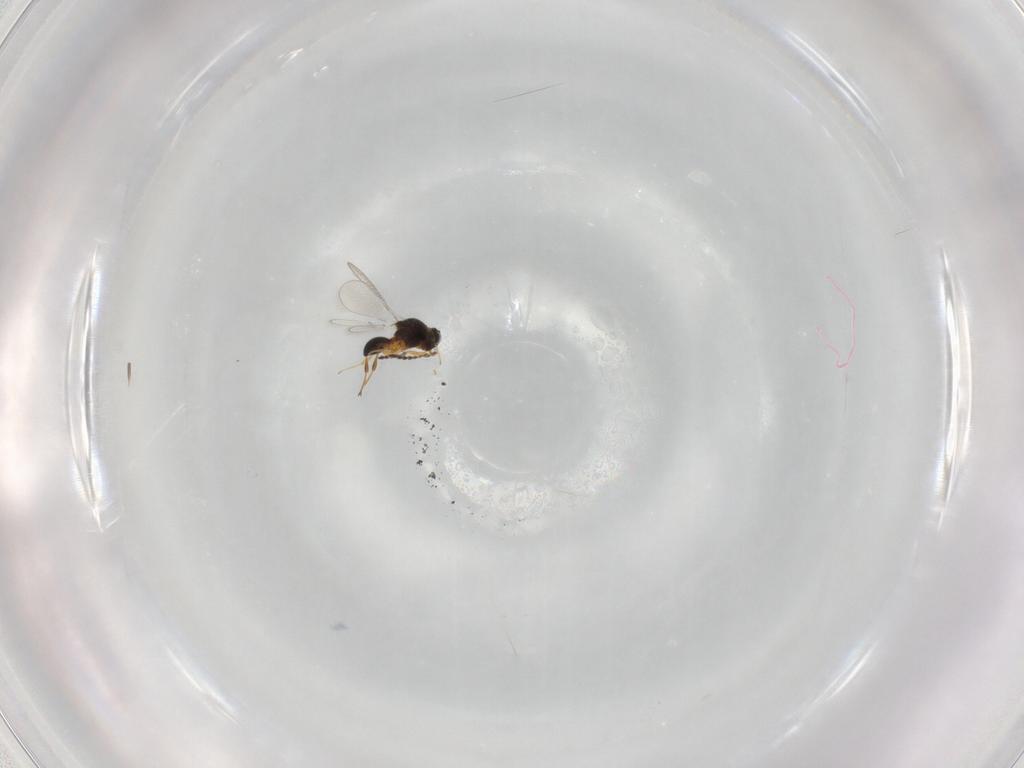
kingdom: Animalia
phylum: Arthropoda
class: Insecta
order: Hymenoptera
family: Platygastridae
